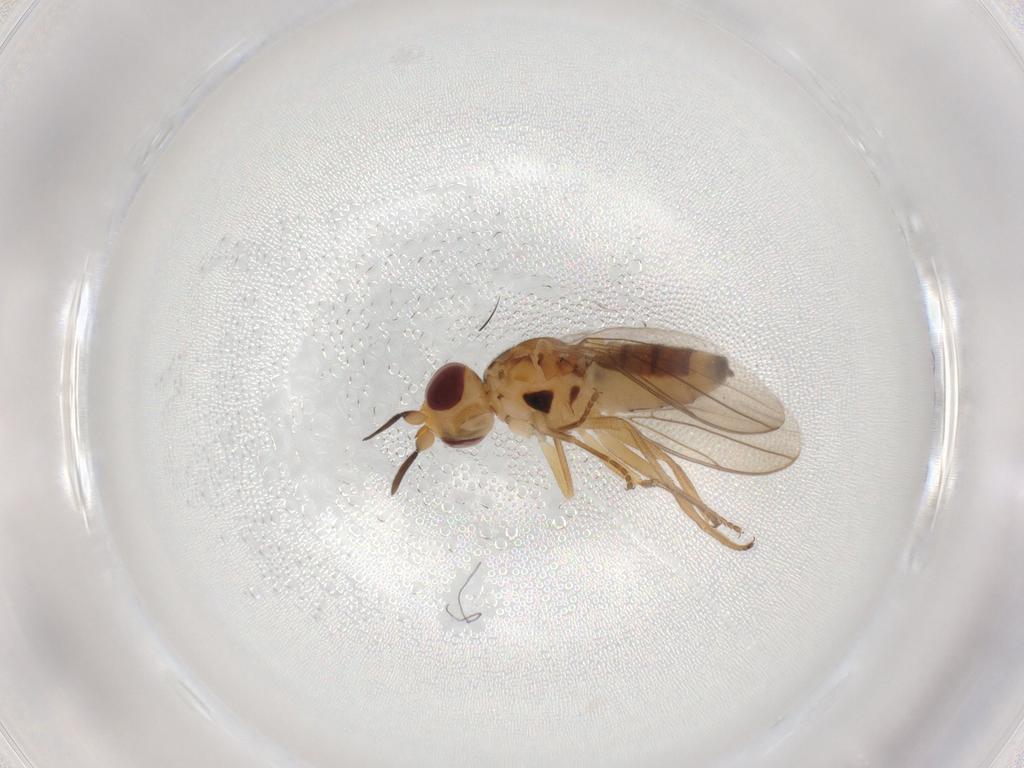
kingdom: Animalia
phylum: Arthropoda
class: Insecta
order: Diptera
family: Chloropidae
